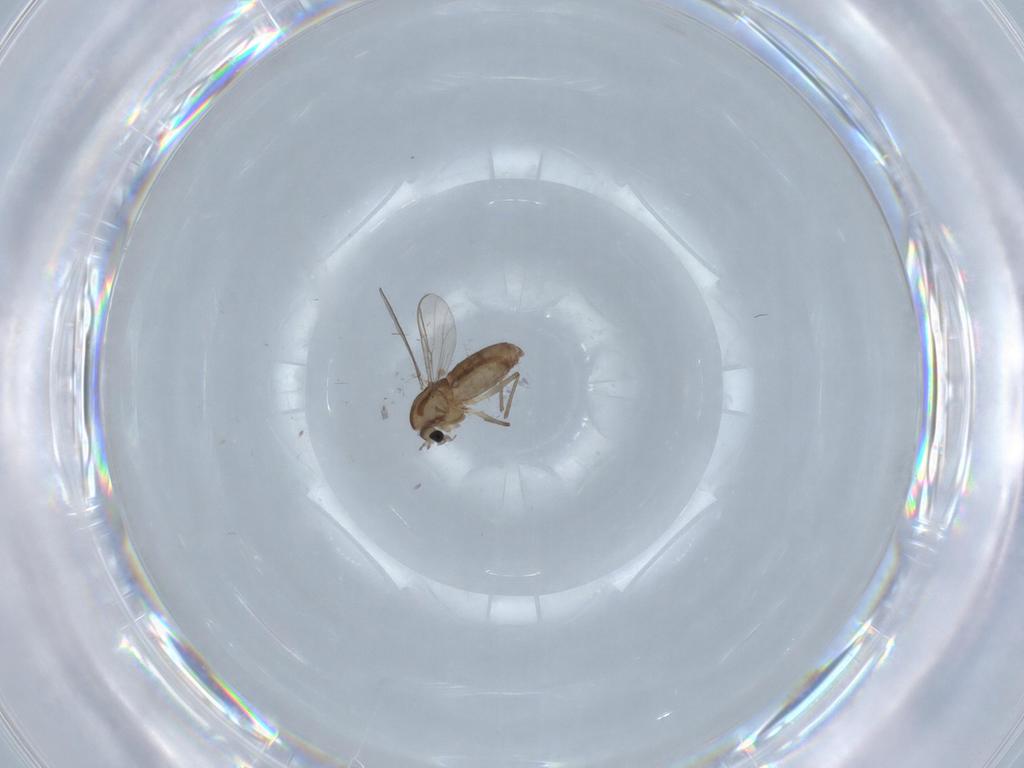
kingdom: Animalia
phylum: Arthropoda
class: Insecta
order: Diptera
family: Chironomidae
